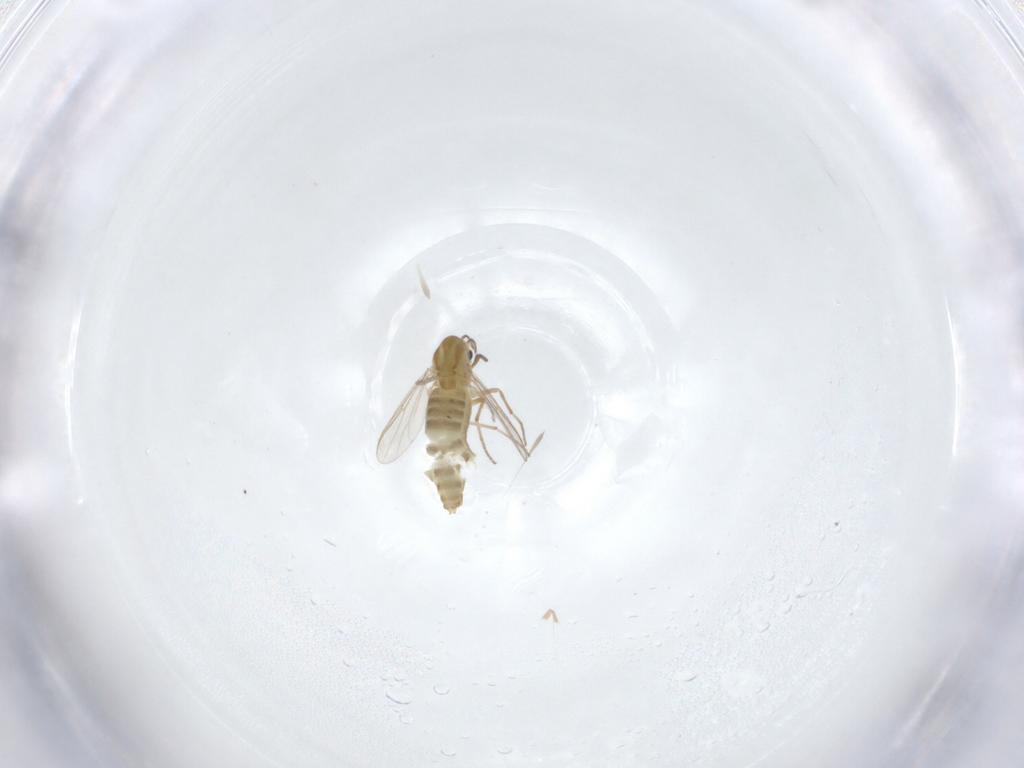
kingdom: Animalia
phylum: Arthropoda
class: Insecta
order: Diptera
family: Chironomidae
